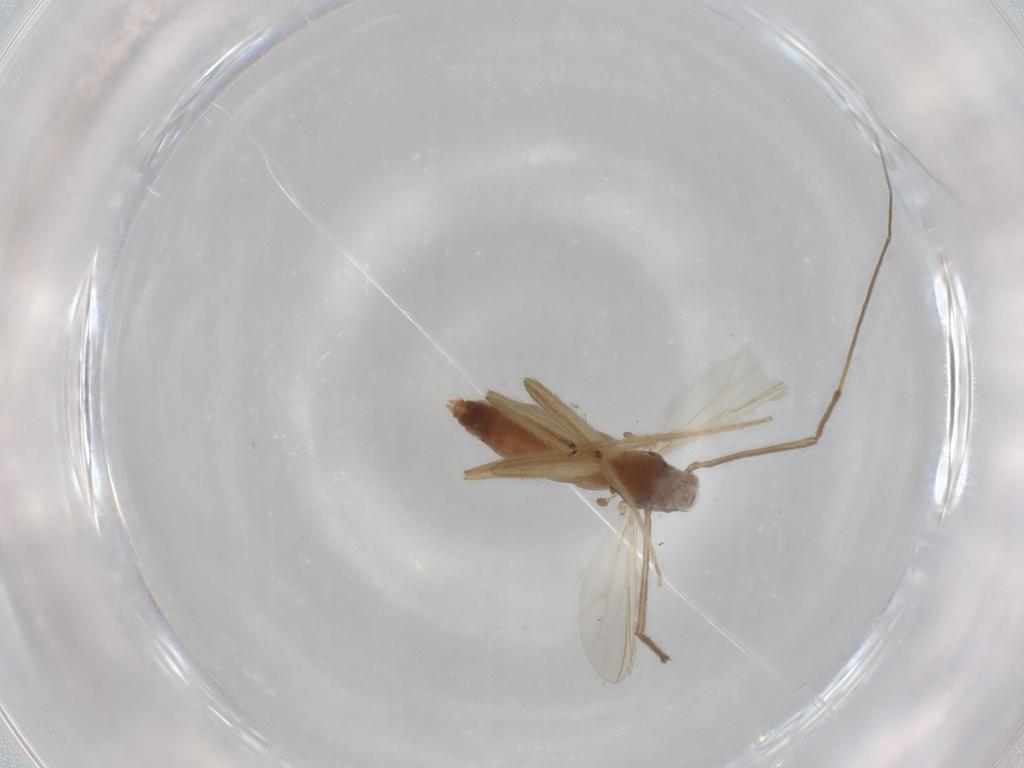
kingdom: Animalia
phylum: Arthropoda
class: Insecta
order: Diptera
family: Chironomidae
